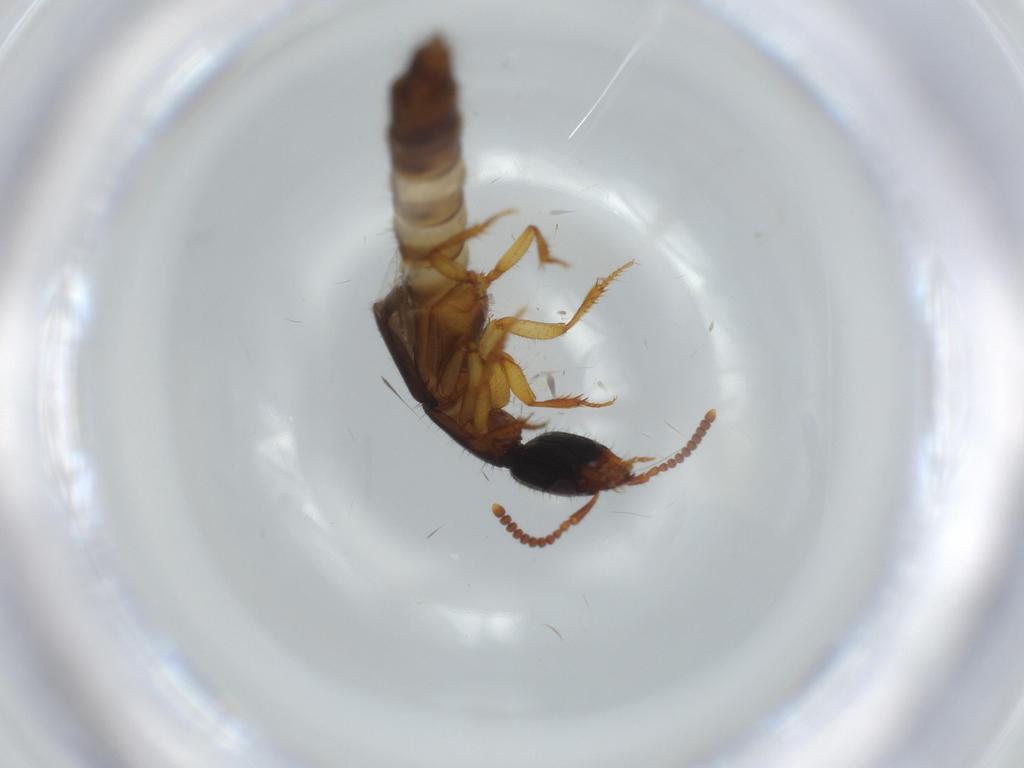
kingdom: Animalia
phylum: Arthropoda
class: Insecta
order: Coleoptera
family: Staphylinidae
